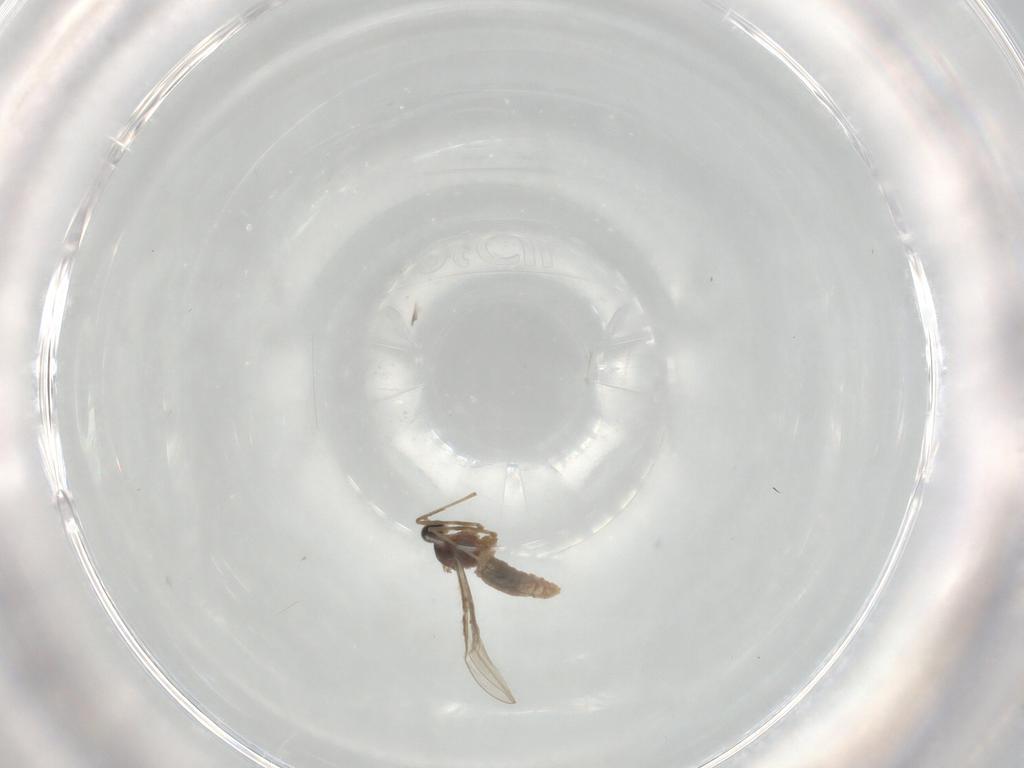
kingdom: Animalia
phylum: Arthropoda
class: Insecta
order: Diptera
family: Cecidomyiidae
